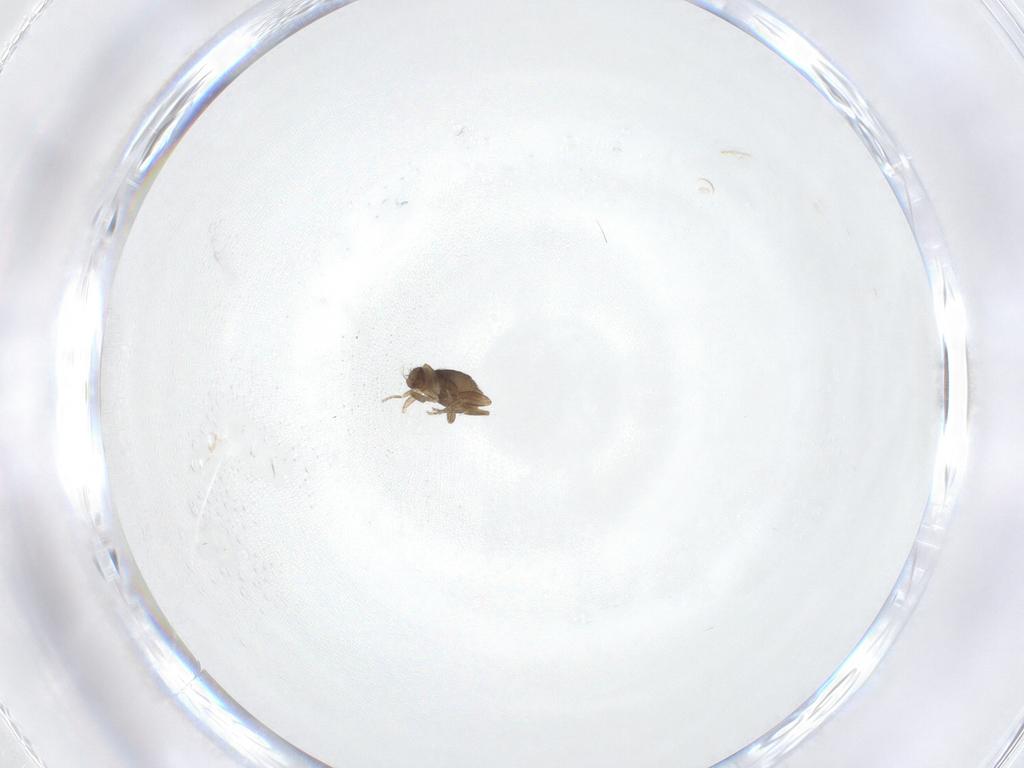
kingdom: Animalia
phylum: Arthropoda
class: Insecta
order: Diptera
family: Phoridae
